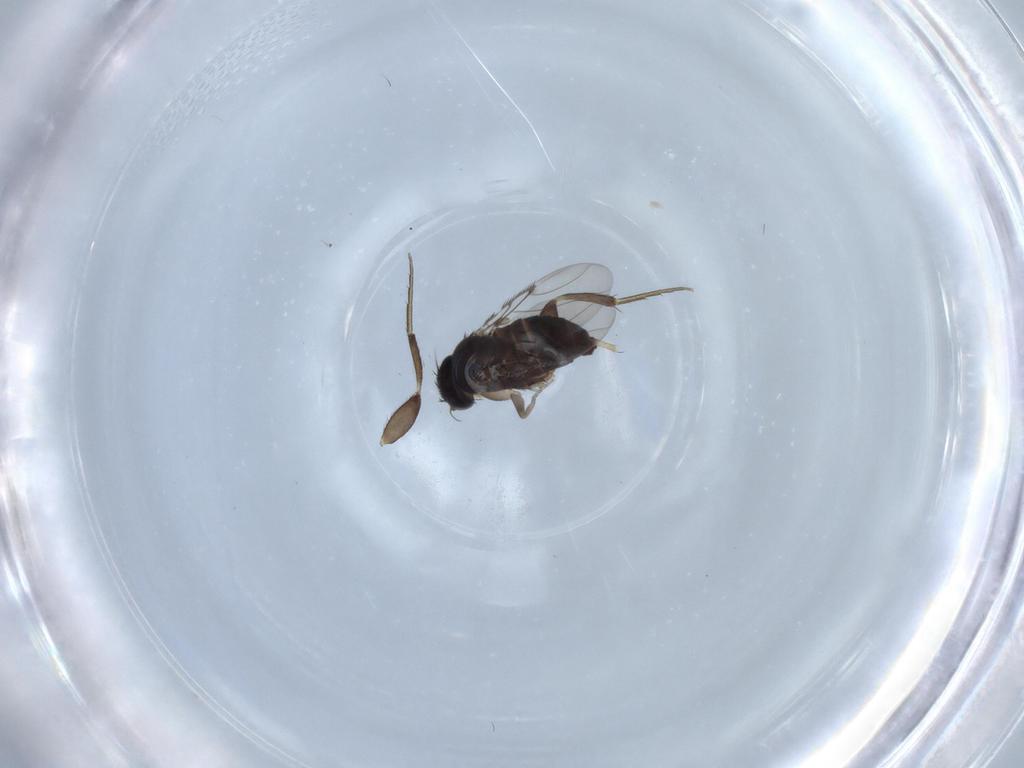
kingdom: Animalia
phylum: Arthropoda
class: Insecta
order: Diptera
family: Phoridae
